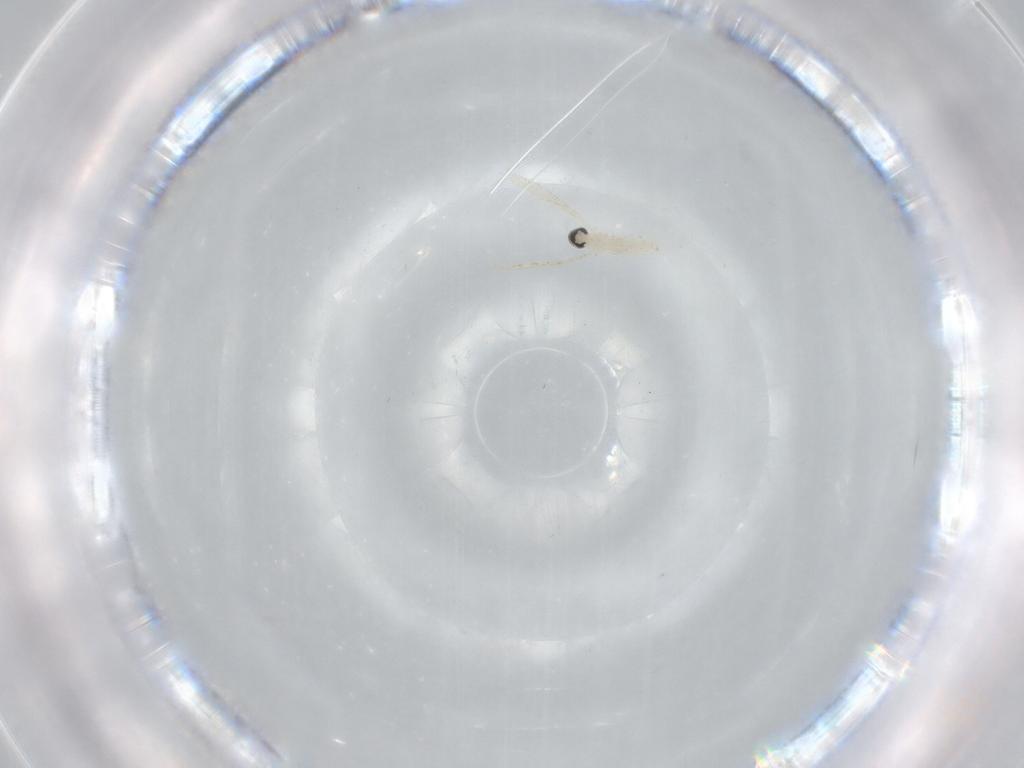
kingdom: Animalia
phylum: Arthropoda
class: Insecta
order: Diptera
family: Cecidomyiidae
